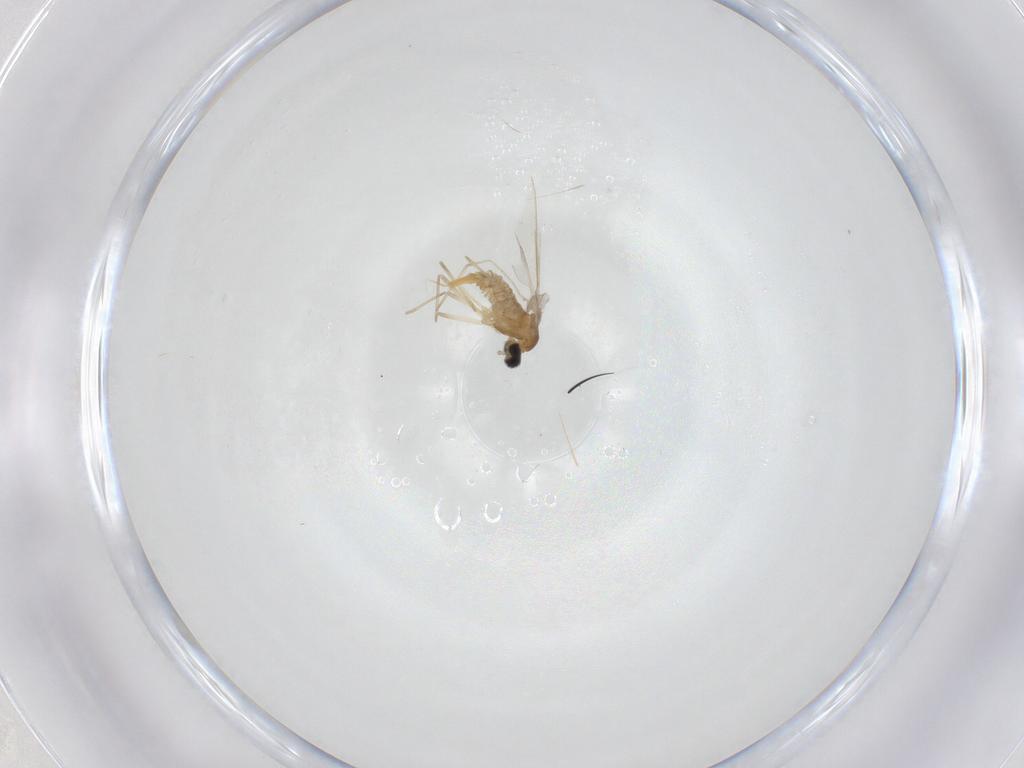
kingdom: Animalia
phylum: Arthropoda
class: Insecta
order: Diptera
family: Cecidomyiidae
